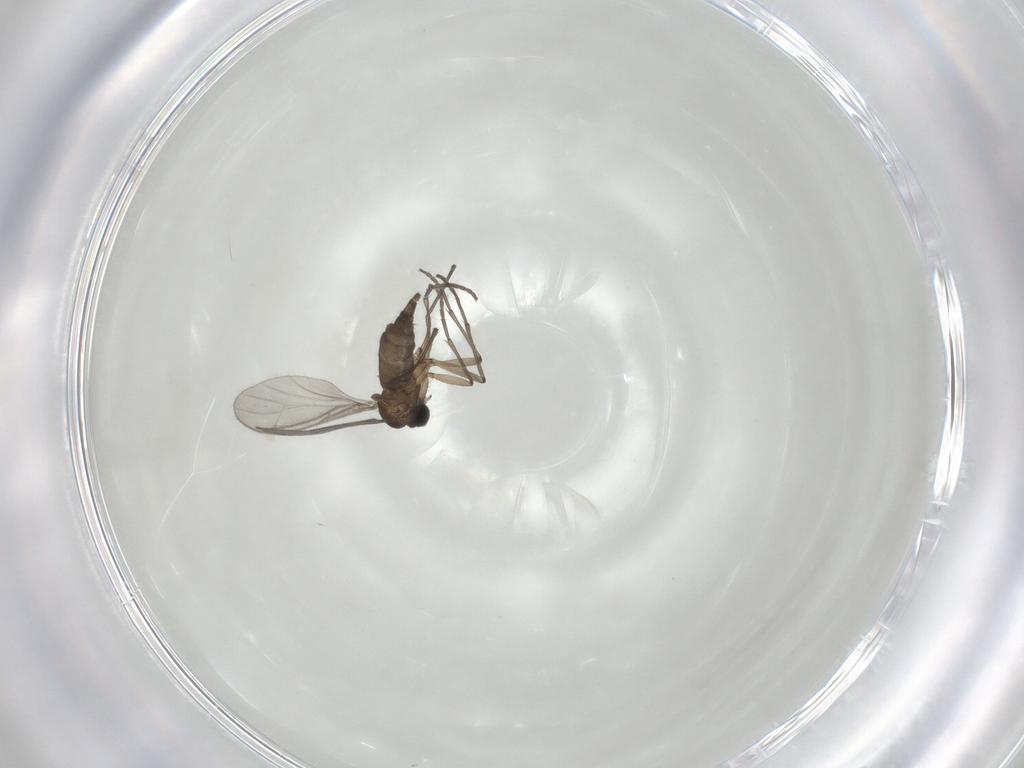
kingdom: Animalia
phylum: Arthropoda
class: Insecta
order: Diptera
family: Sciaridae
